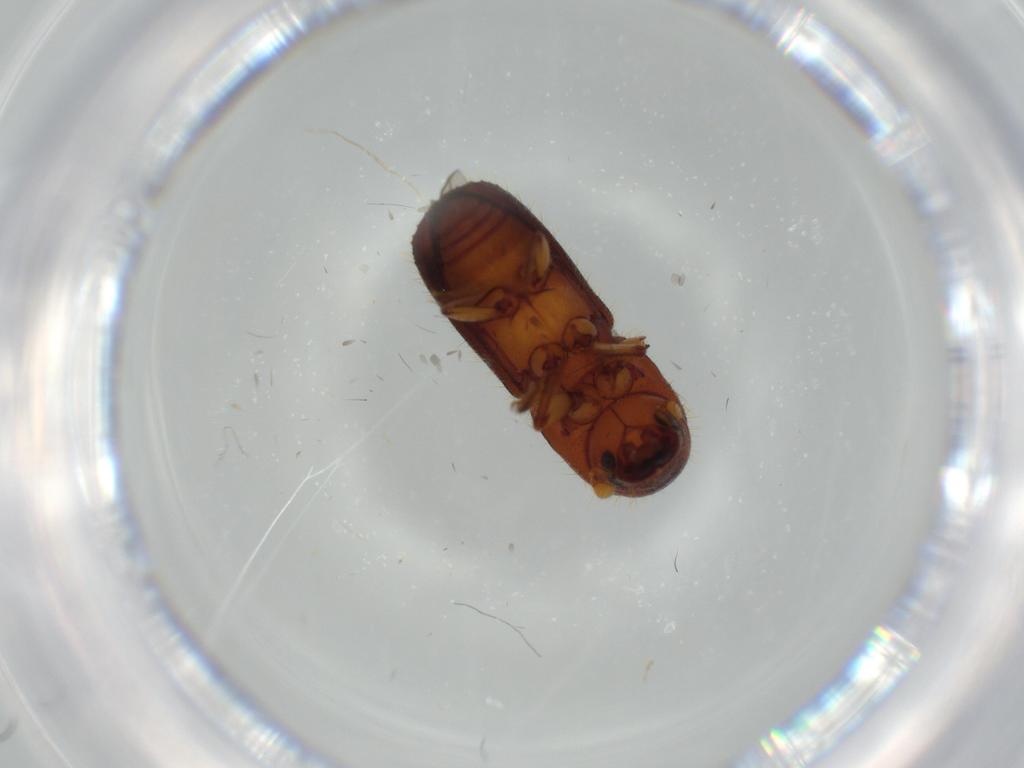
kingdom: Animalia
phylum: Arthropoda
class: Insecta
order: Coleoptera
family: Curculionidae
